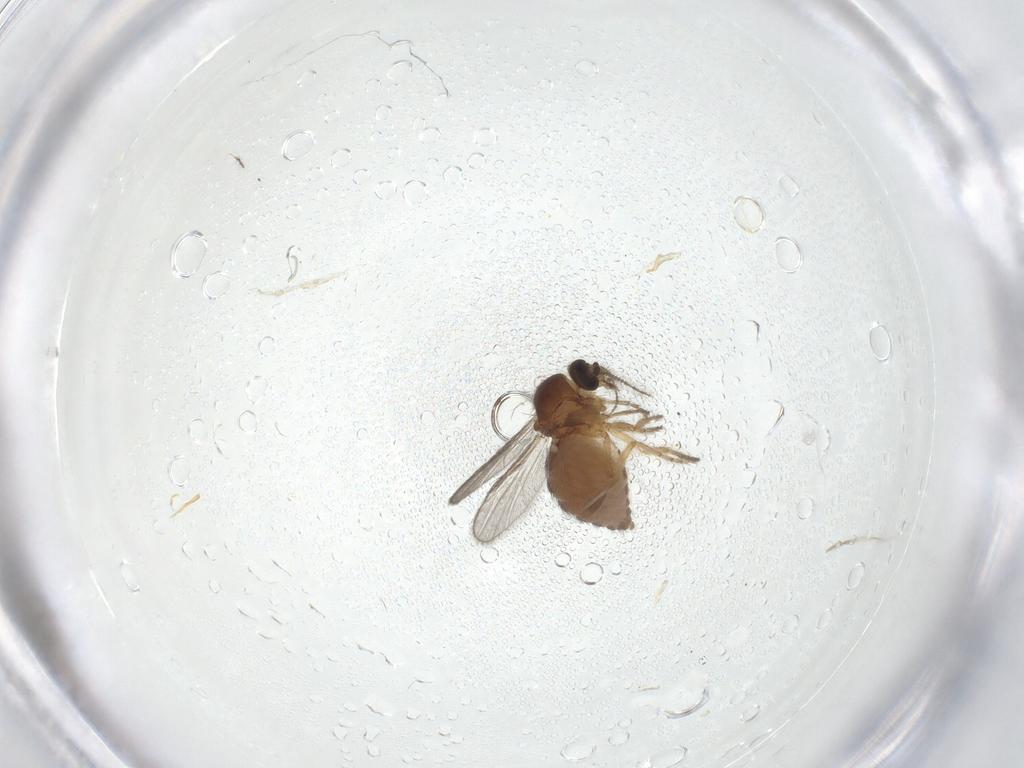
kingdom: Animalia
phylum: Arthropoda
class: Insecta
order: Diptera
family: Ceratopogonidae
